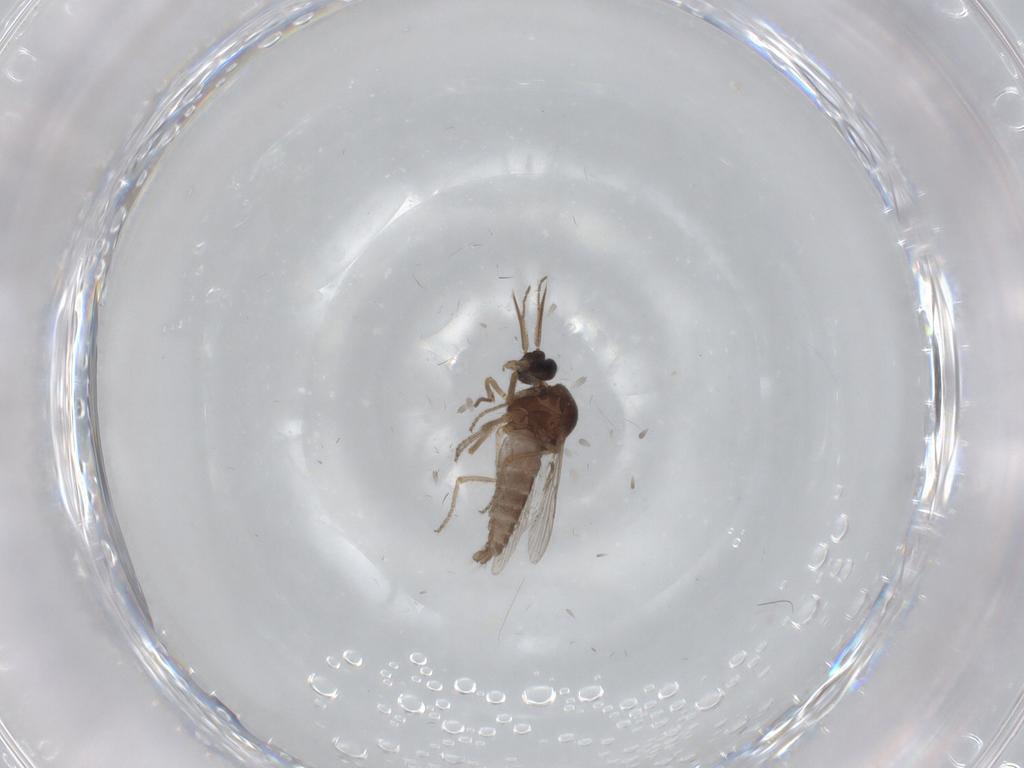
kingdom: Animalia
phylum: Arthropoda
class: Insecta
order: Diptera
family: Ceratopogonidae
